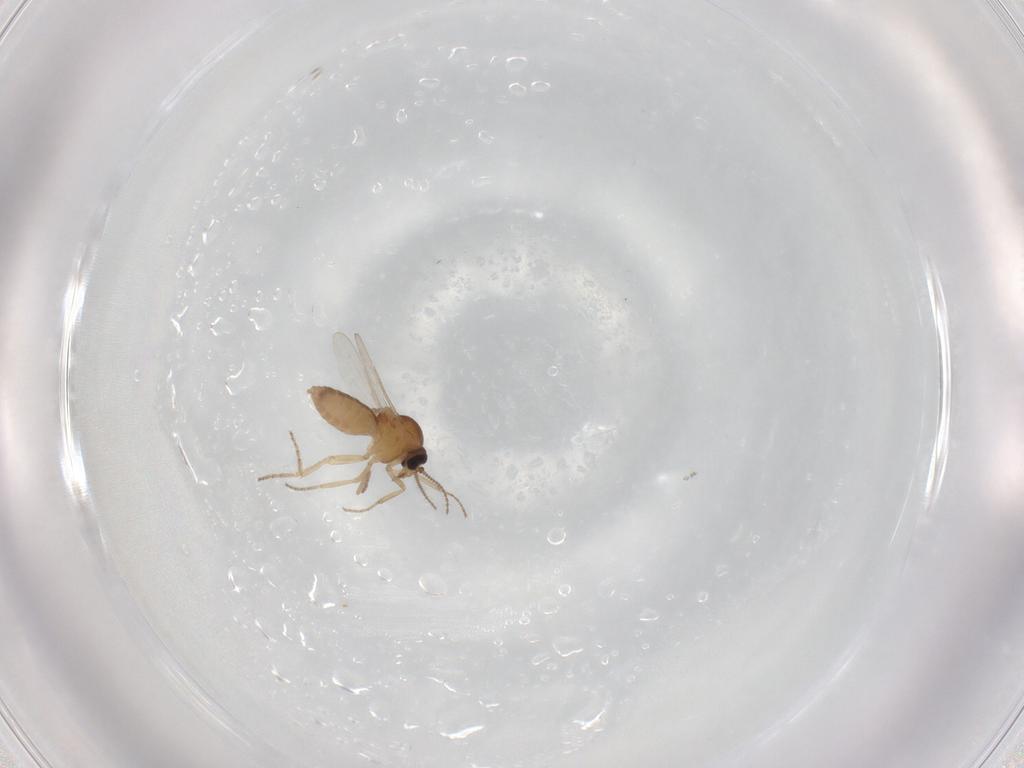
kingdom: Animalia
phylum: Arthropoda
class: Insecta
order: Diptera
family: Ceratopogonidae
